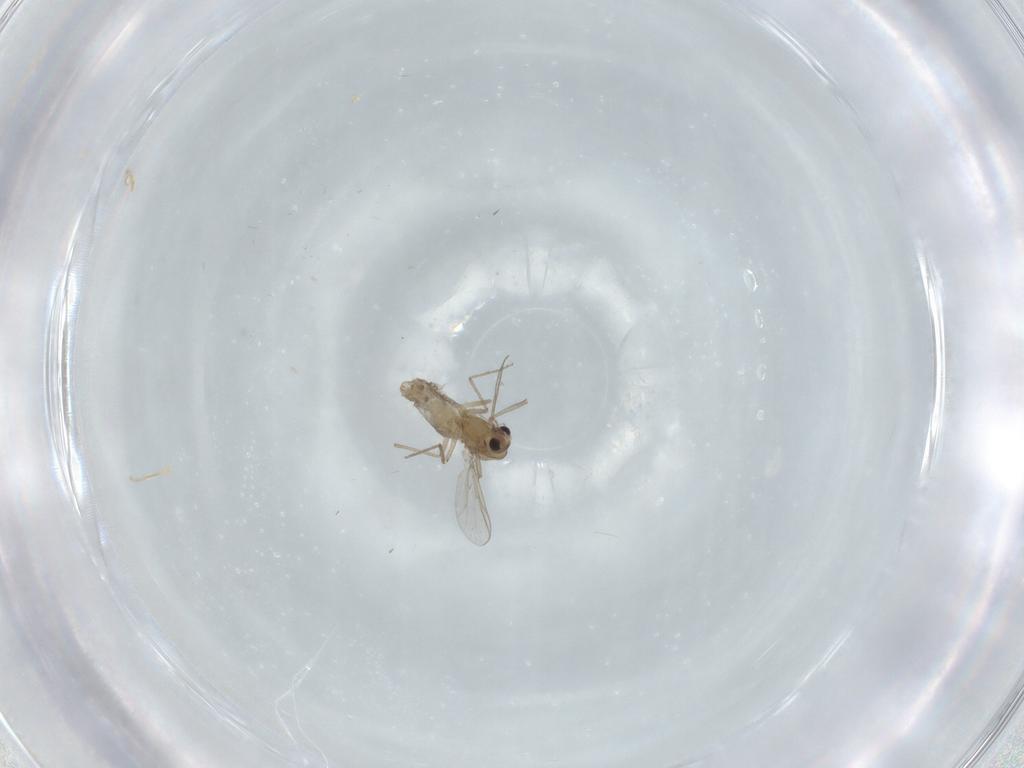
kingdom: Animalia
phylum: Arthropoda
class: Insecta
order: Diptera
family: Chironomidae
